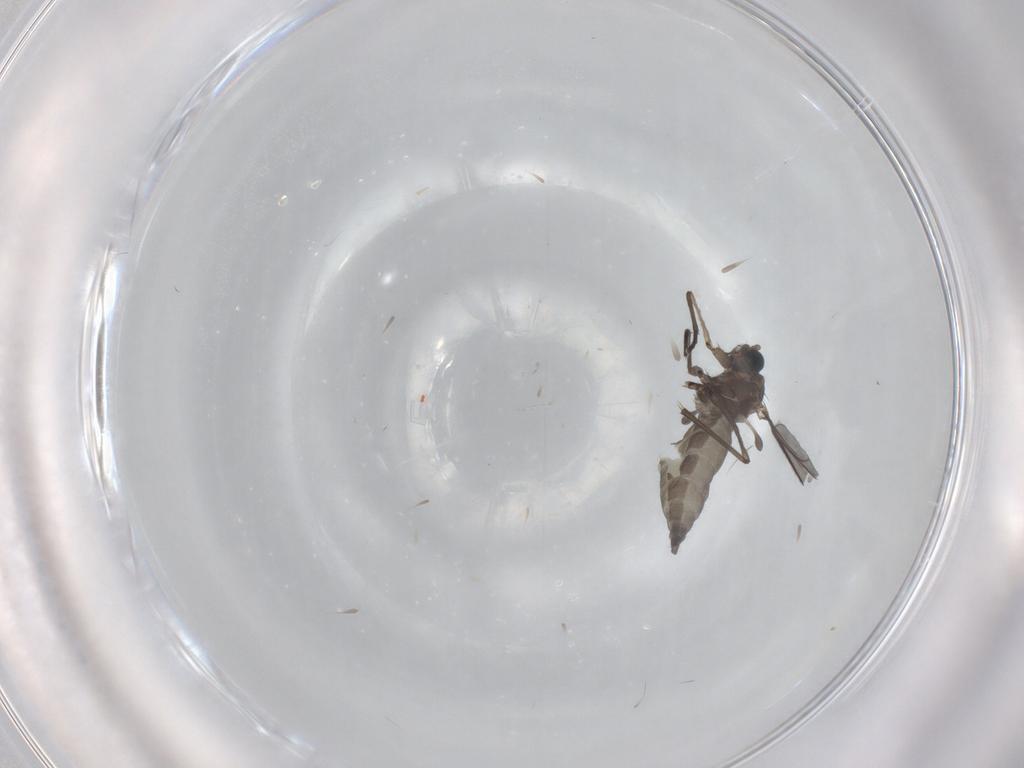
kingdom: Animalia
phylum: Arthropoda
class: Insecta
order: Diptera
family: Sciaridae
